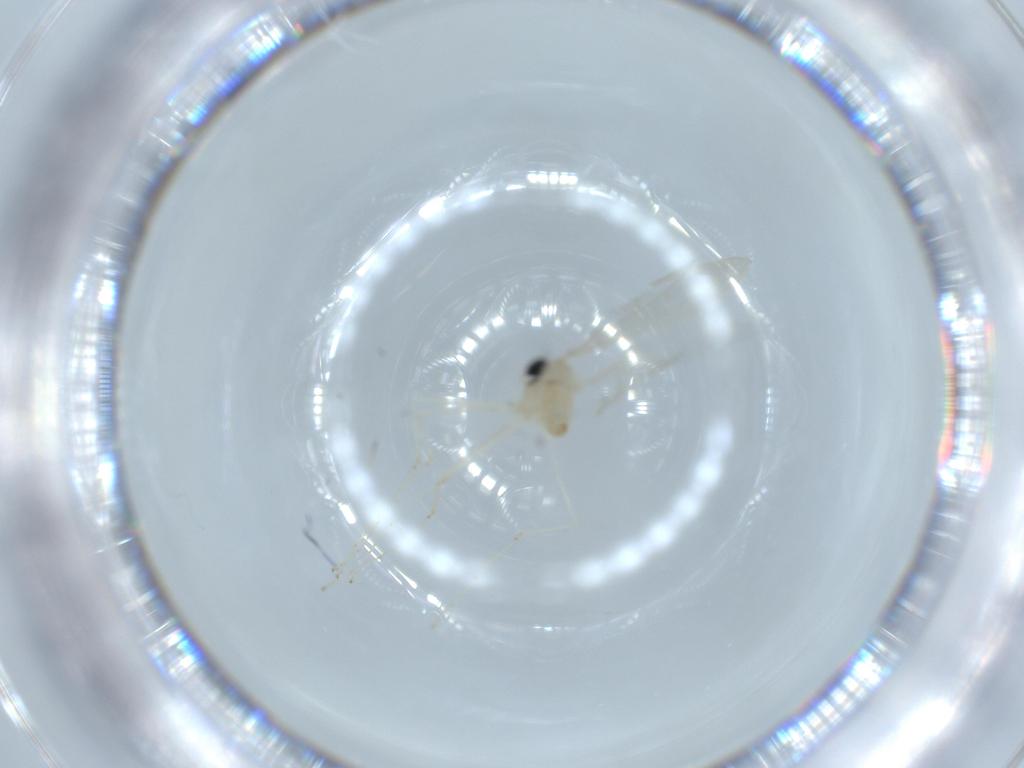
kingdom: Animalia
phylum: Arthropoda
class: Insecta
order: Diptera
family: Cecidomyiidae
